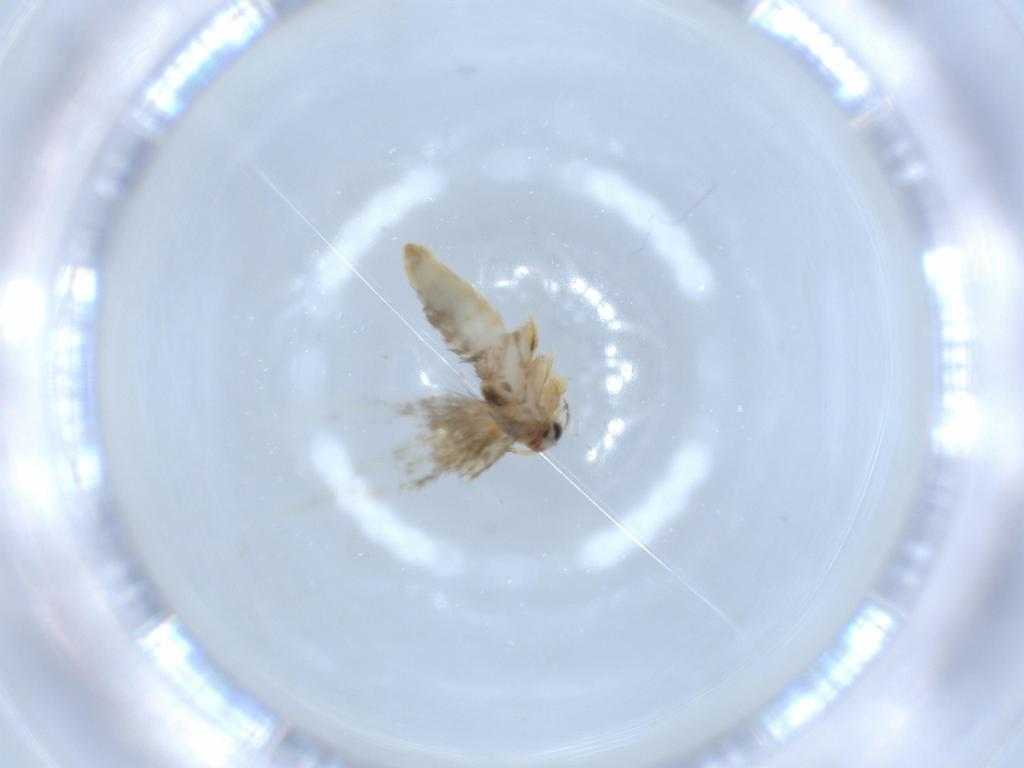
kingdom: Animalia
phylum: Arthropoda
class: Insecta
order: Lepidoptera
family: Nepticulidae
